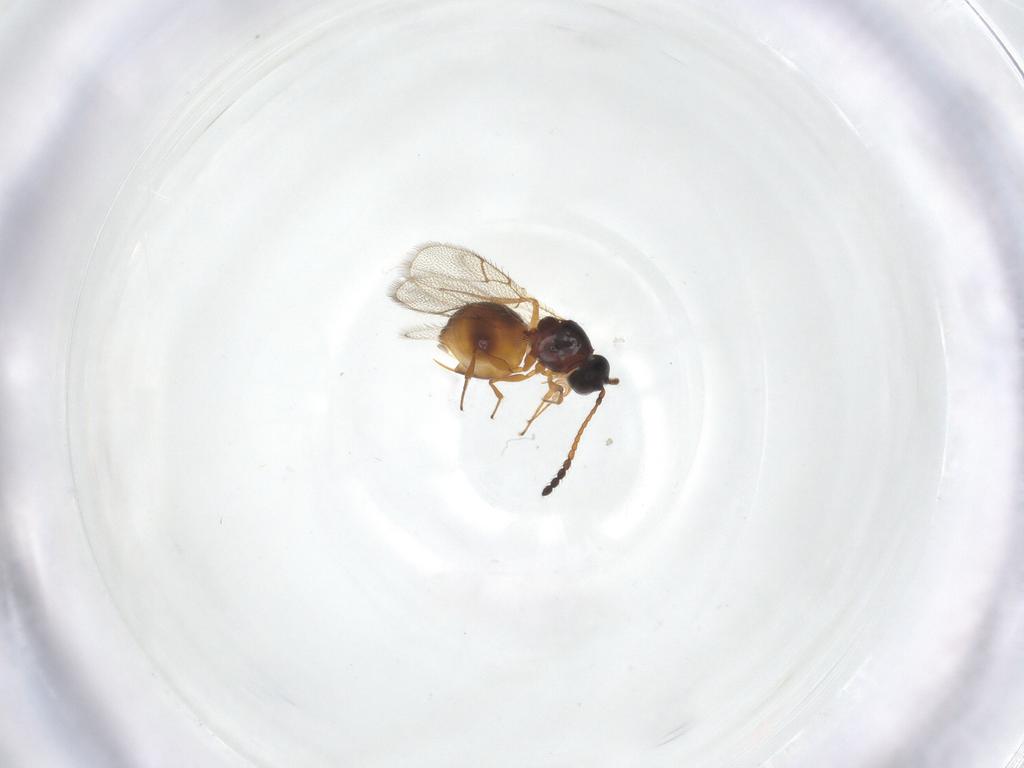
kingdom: Animalia
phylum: Arthropoda
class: Insecta
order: Hymenoptera
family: Figitidae
